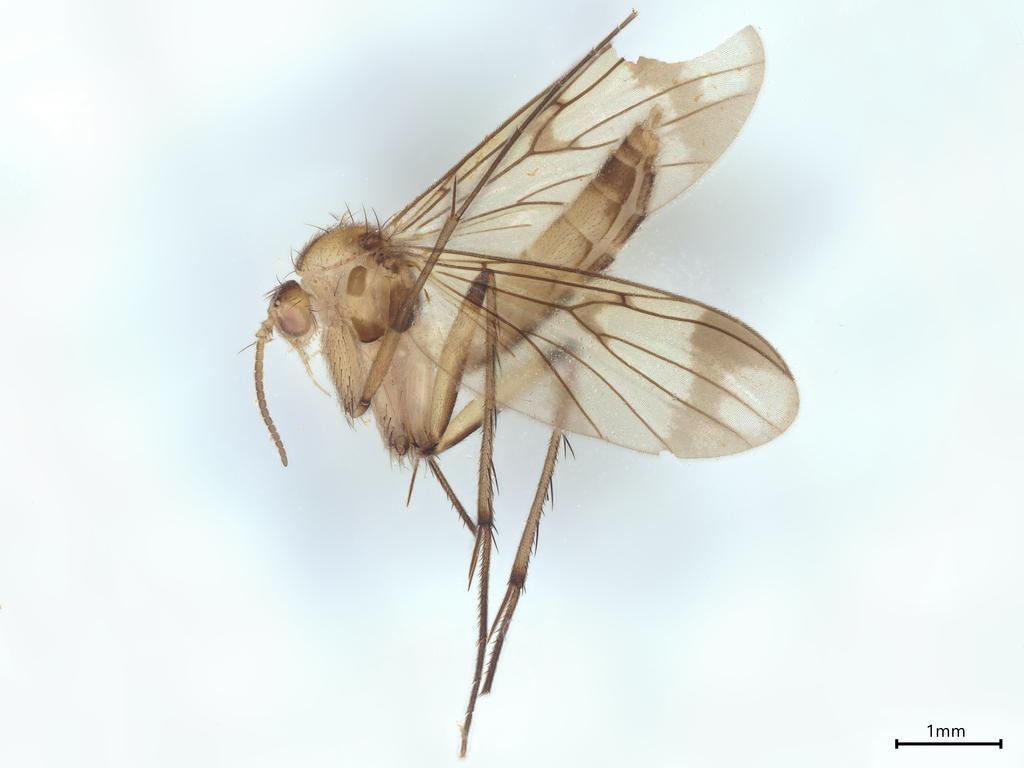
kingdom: Animalia
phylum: Arthropoda
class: Insecta
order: Diptera
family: Mycetophilidae
